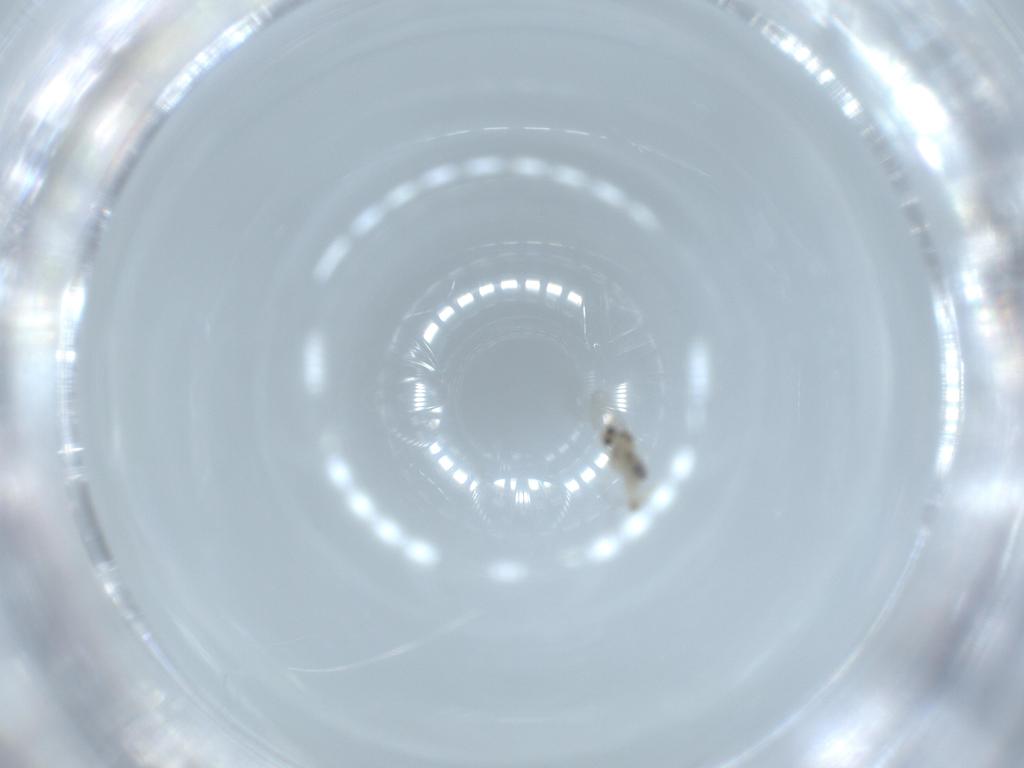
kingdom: Animalia
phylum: Arthropoda
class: Insecta
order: Diptera
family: Cecidomyiidae
